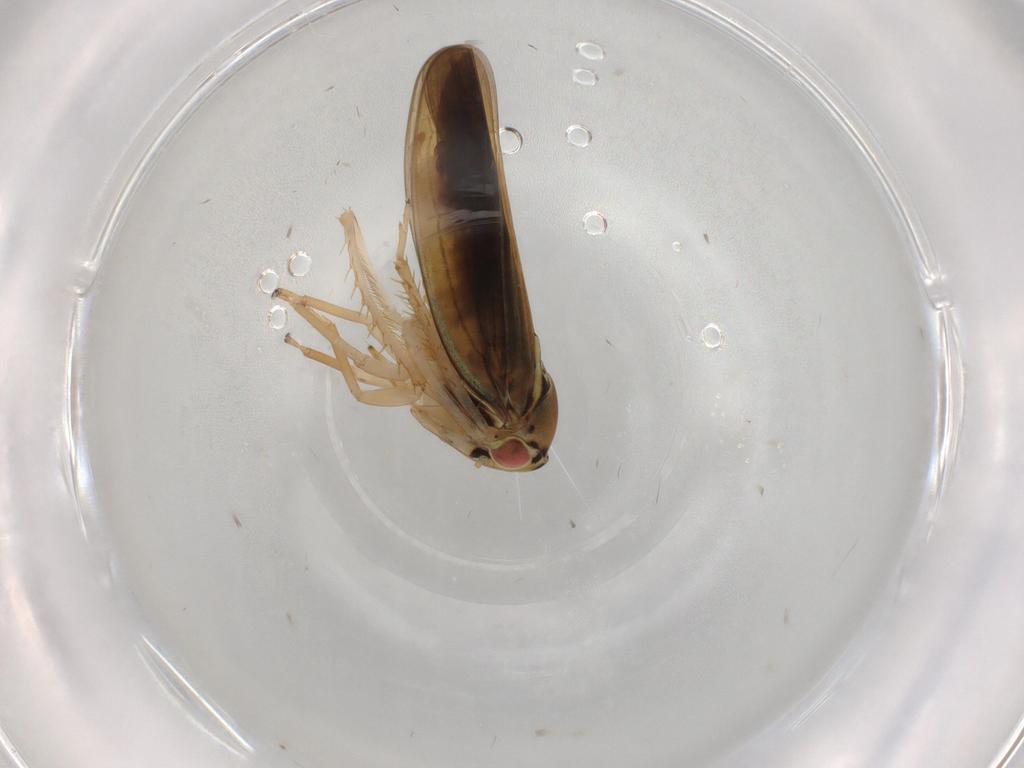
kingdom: Animalia
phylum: Arthropoda
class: Insecta
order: Hemiptera
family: Cicadellidae
